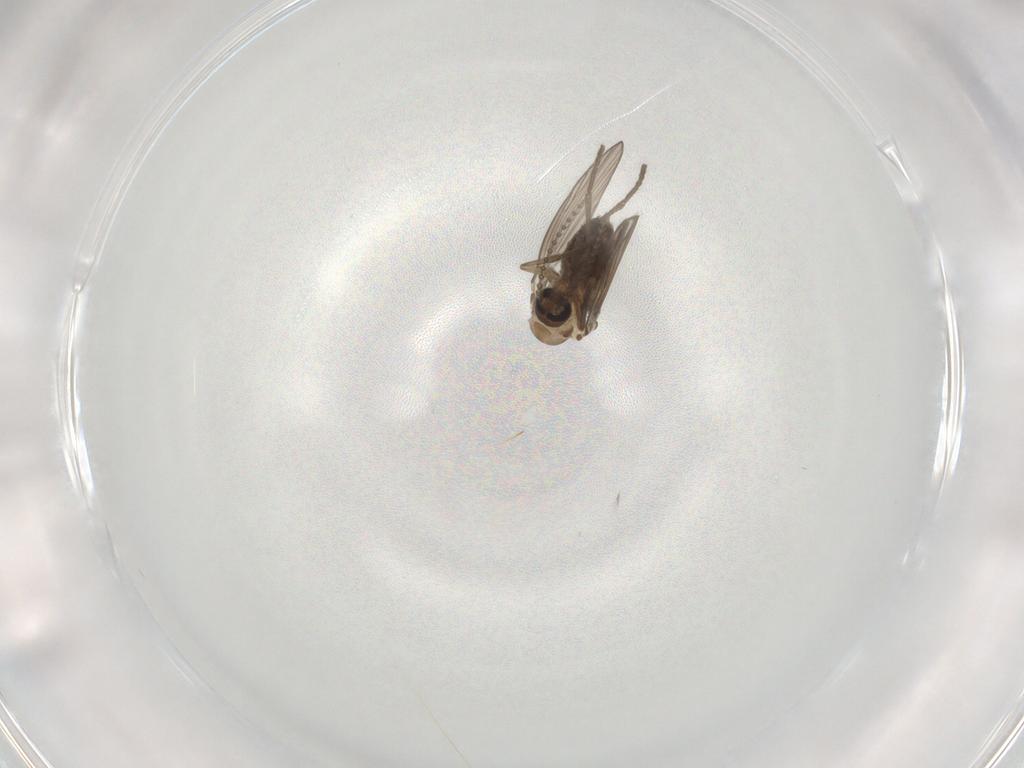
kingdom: Animalia
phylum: Arthropoda
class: Insecta
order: Diptera
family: Psychodidae
